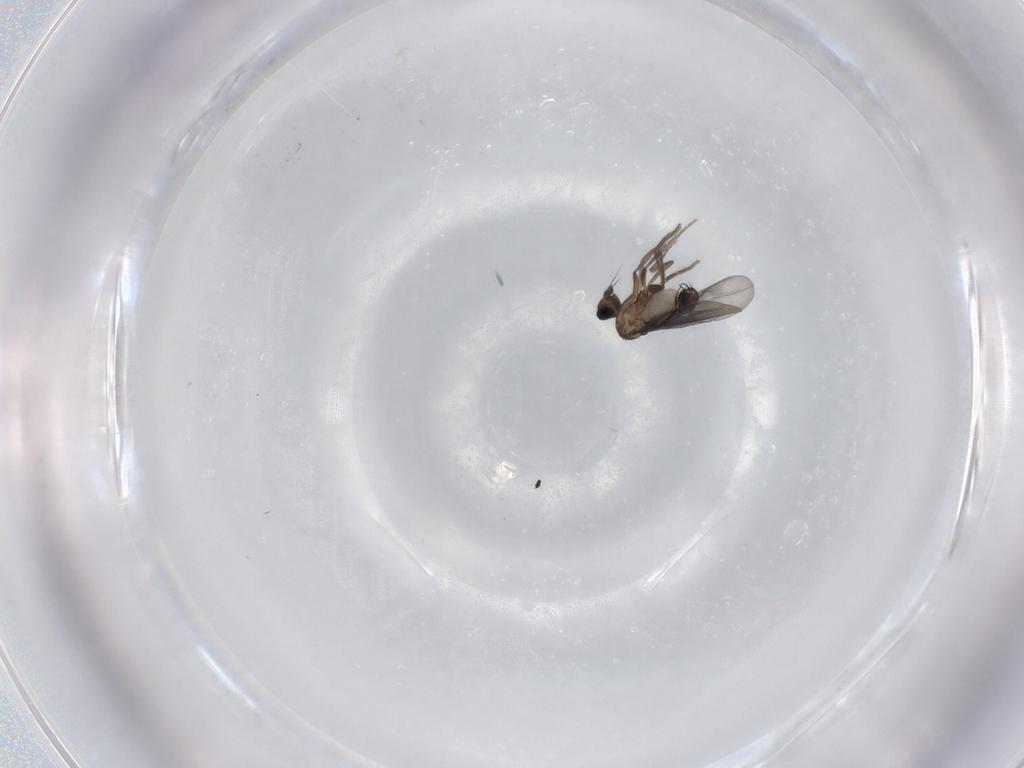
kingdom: Animalia
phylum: Arthropoda
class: Insecta
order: Diptera
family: Phoridae
